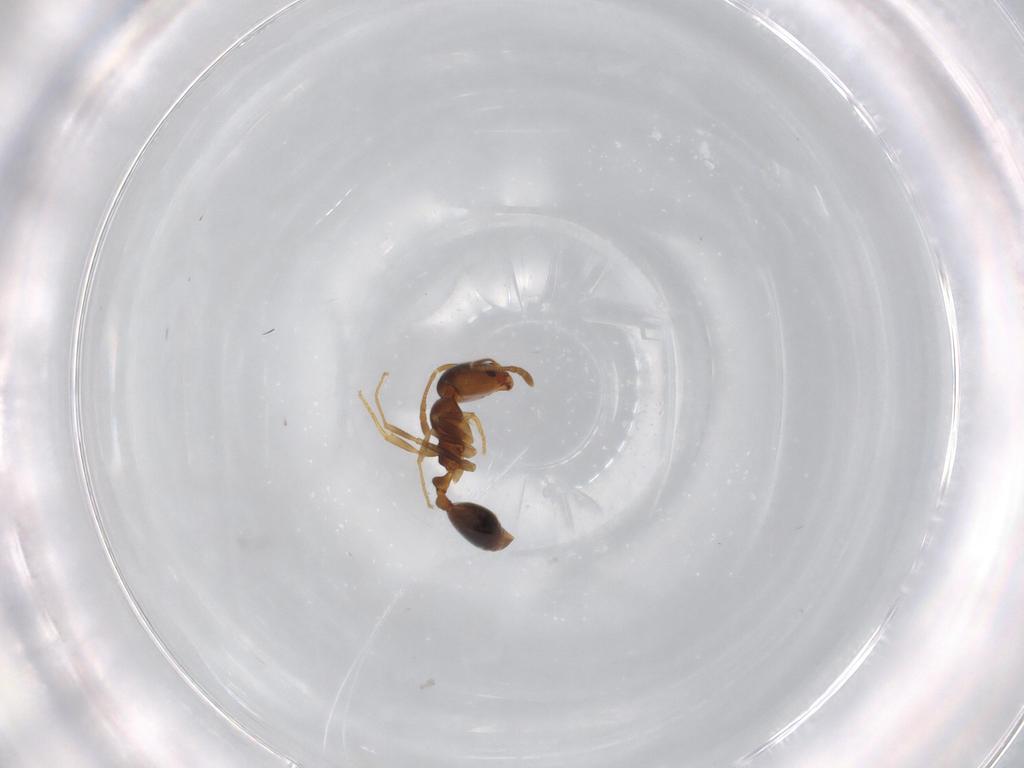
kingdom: Animalia
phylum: Arthropoda
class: Insecta
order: Hymenoptera
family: Formicidae
